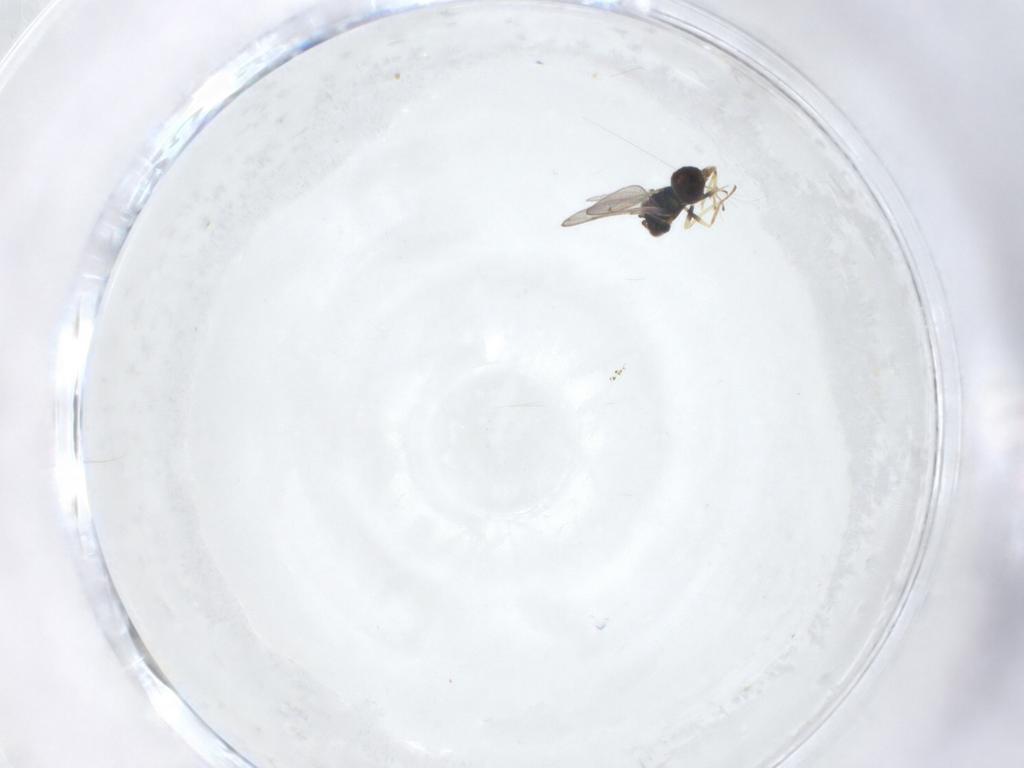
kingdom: Animalia
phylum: Arthropoda
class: Insecta
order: Hymenoptera
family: Eulophidae
